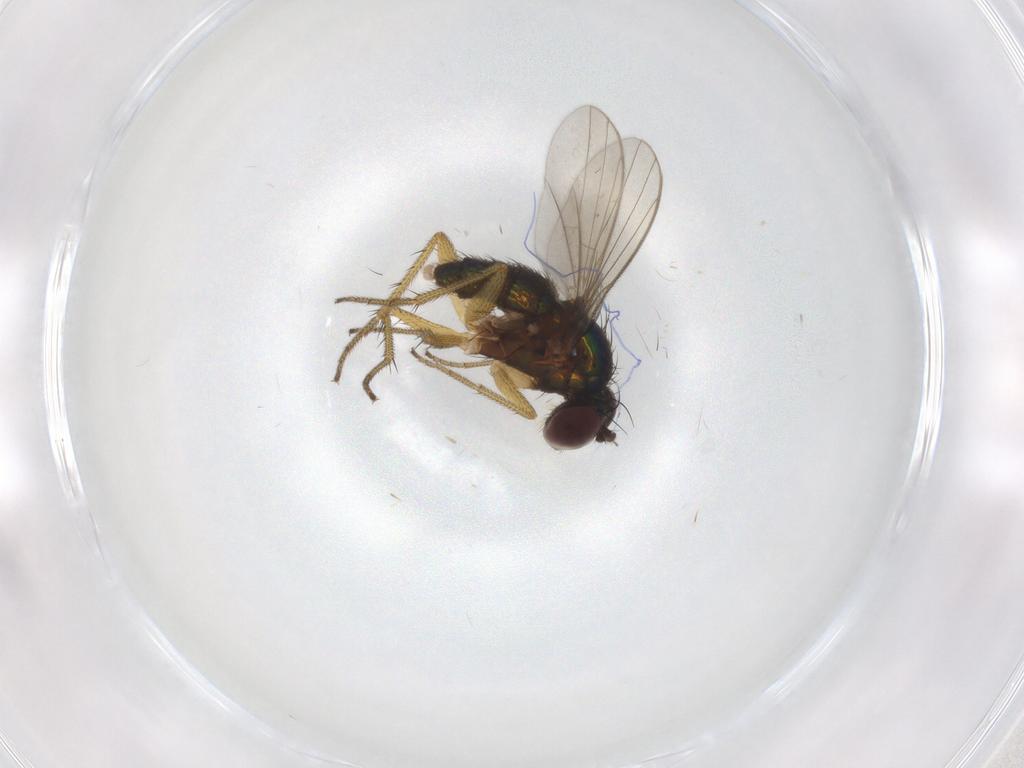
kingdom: Animalia
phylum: Arthropoda
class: Insecta
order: Diptera
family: Dolichopodidae
